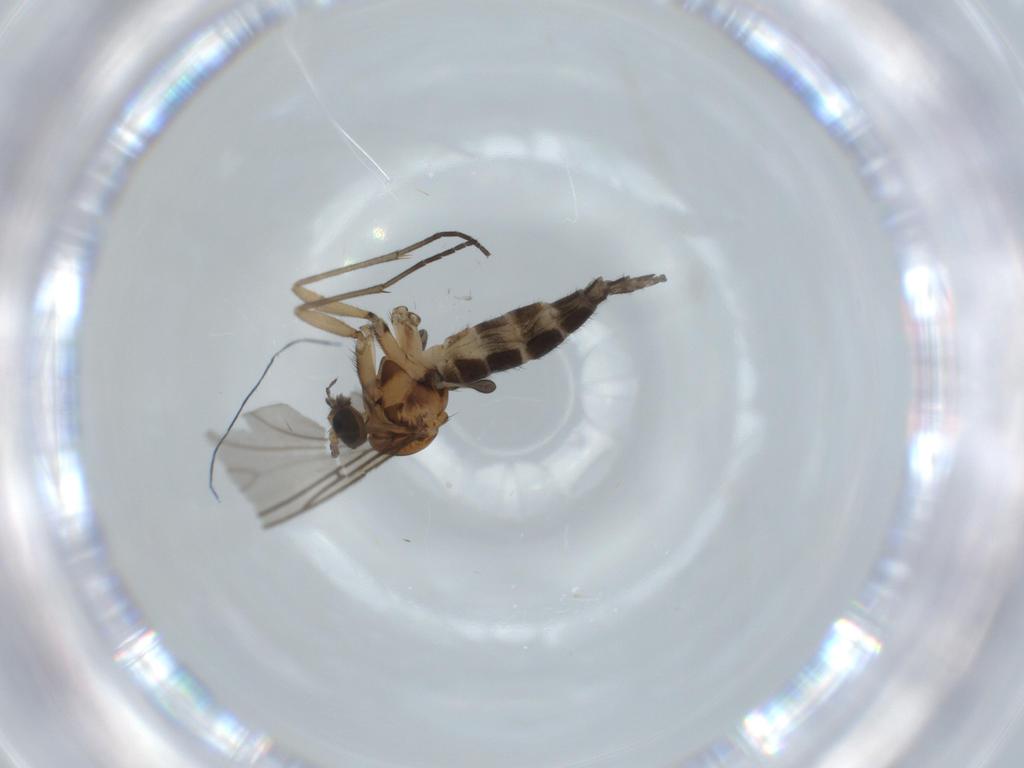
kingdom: Animalia
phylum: Arthropoda
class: Insecta
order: Diptera
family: Sciaridae
